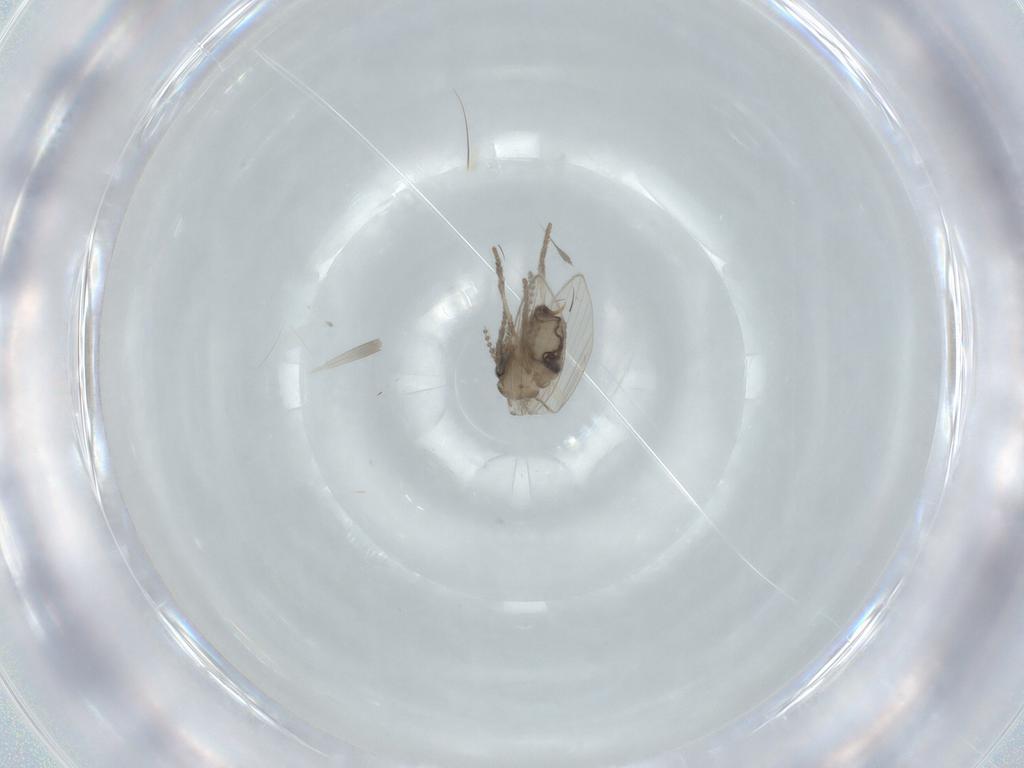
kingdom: Animalia
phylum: Arthropoda
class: Insecta
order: Diptera
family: Psychodidae
